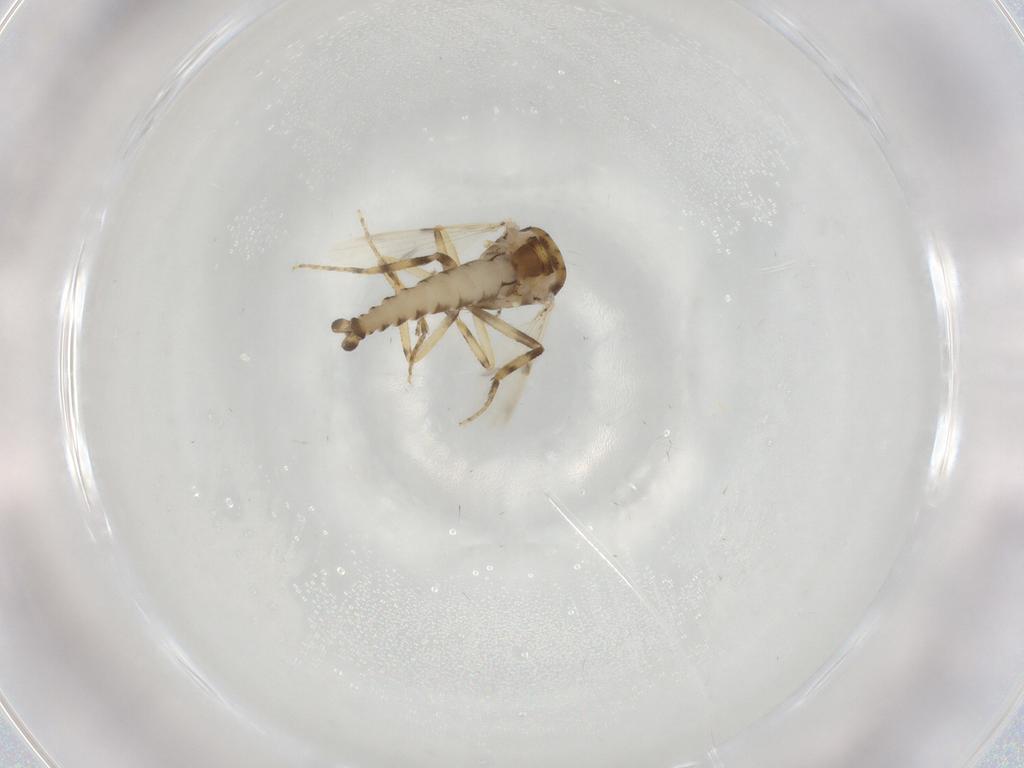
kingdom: Animalia
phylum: Arthropoda
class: Insecta
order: Diptera
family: Ceratopogonidae
